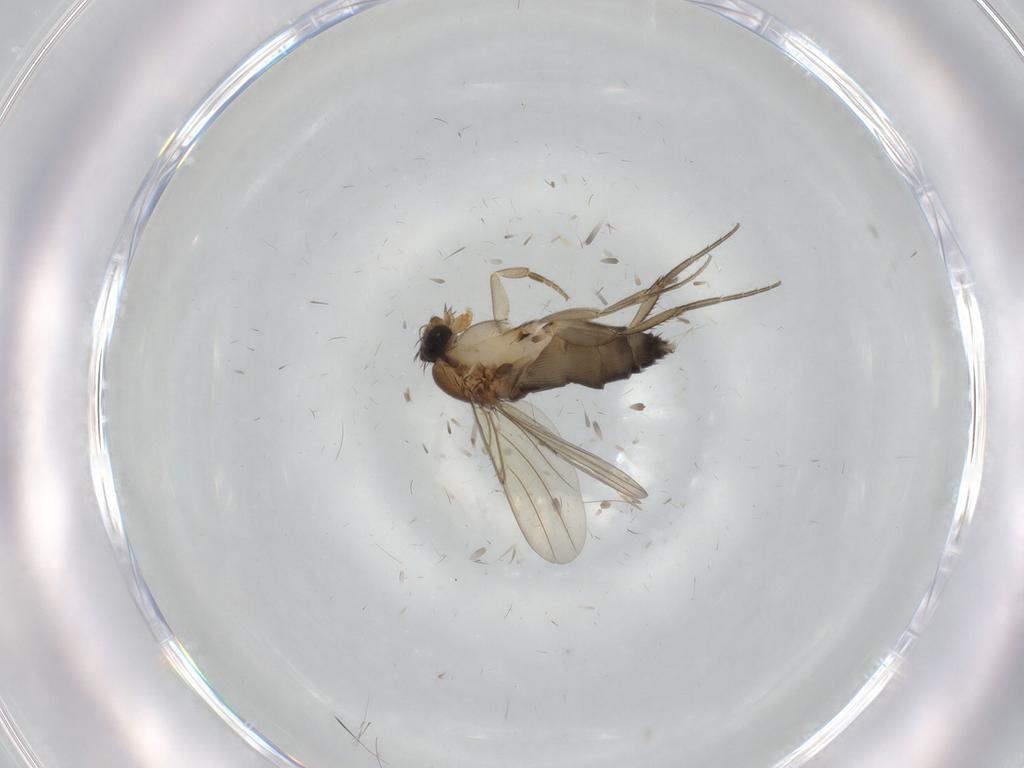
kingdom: Animalia
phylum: Arthropoda
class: Insecta
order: Diptera
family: Phoridae
